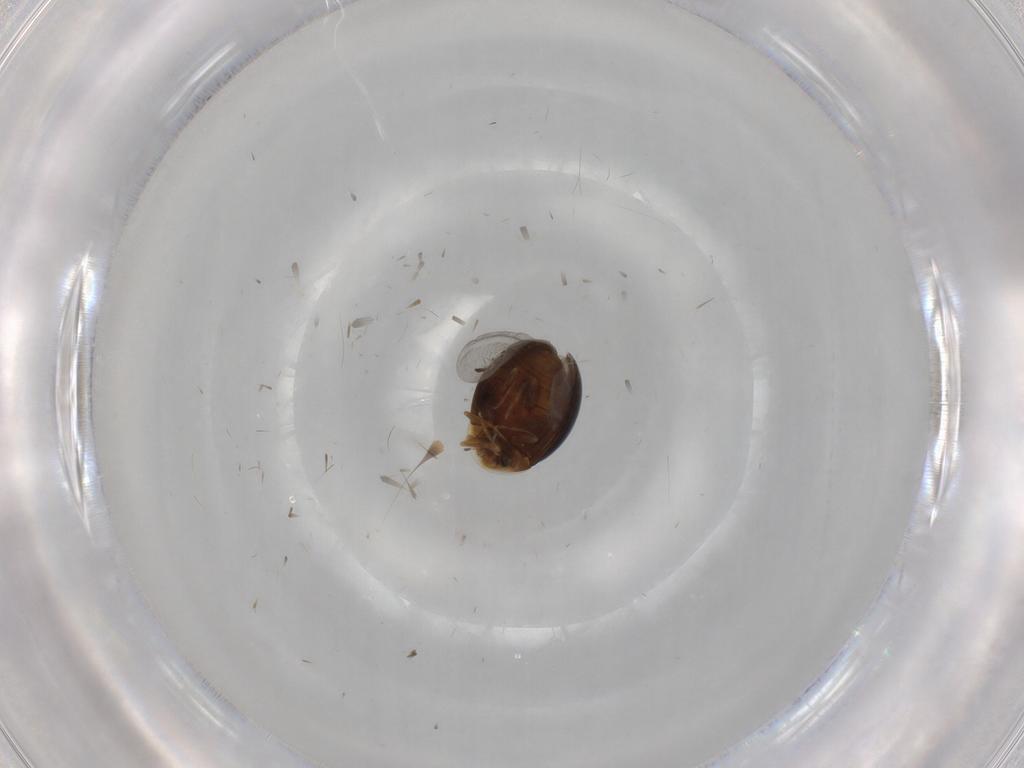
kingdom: Animalia
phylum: Arthropoda
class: Insecta
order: Coleoptera
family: Corylophidae
